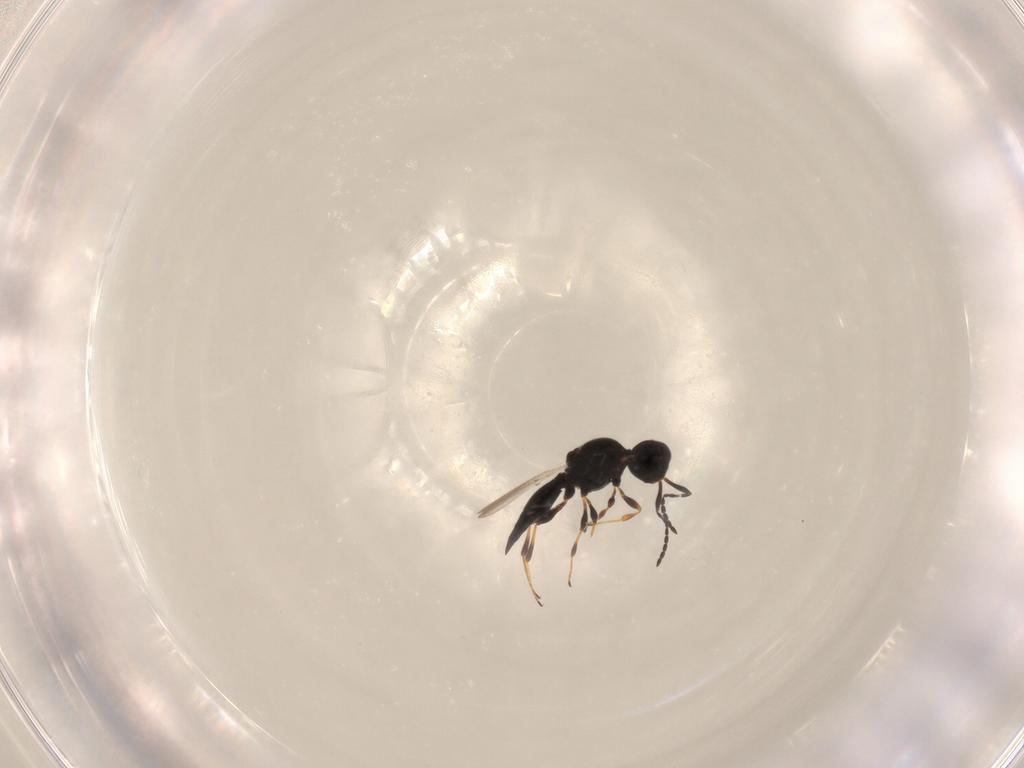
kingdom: Animalia
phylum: Arthropoda
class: Insecta
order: Hymenoptera
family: Platygastridae
